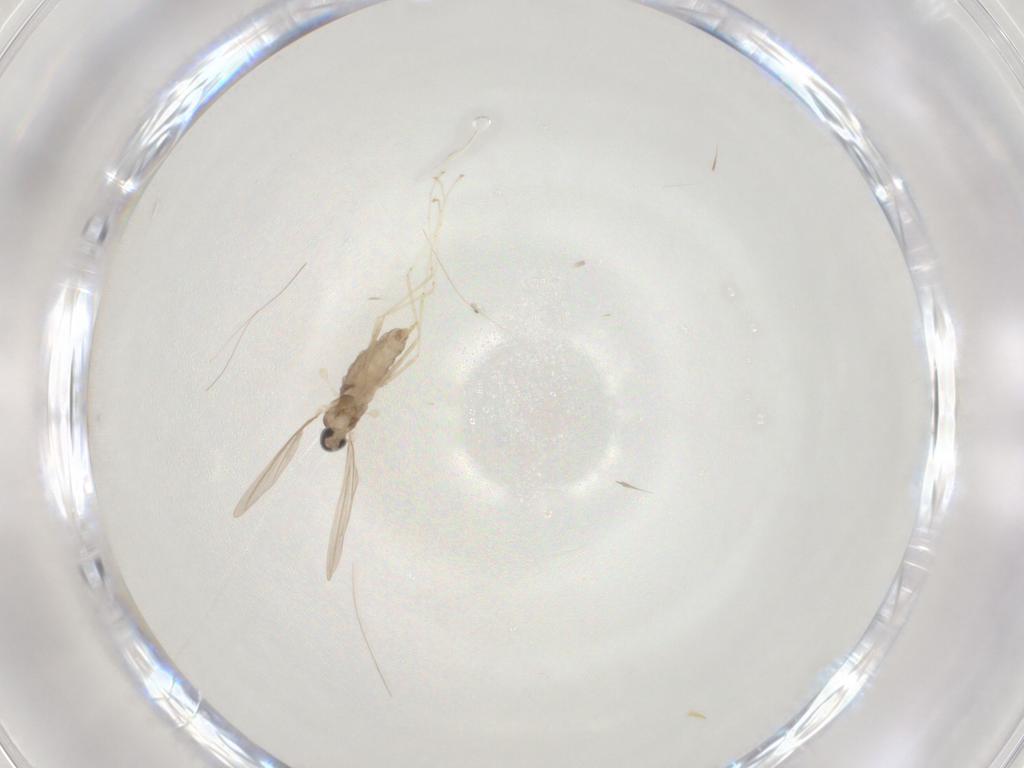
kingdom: Animalia
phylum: Arthropoda
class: Insecta
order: Diptera
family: Cecidomyiidae
